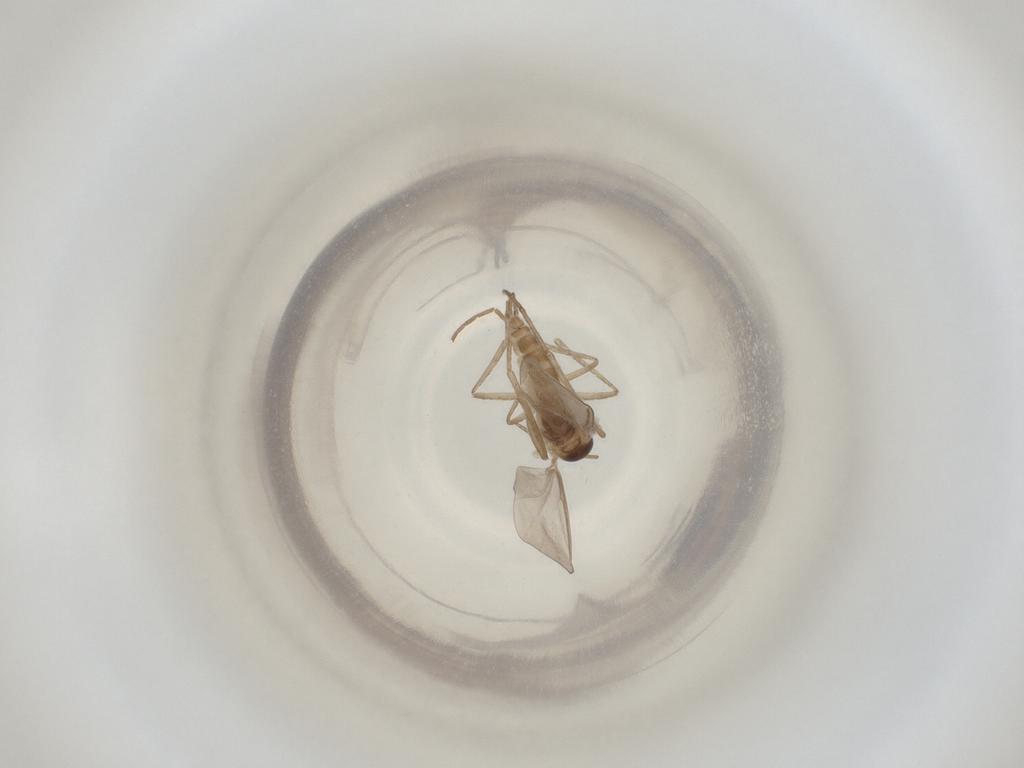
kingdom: Animalia
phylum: Arthropoda
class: Insecta
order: Diptera
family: Cecidomyiidae
